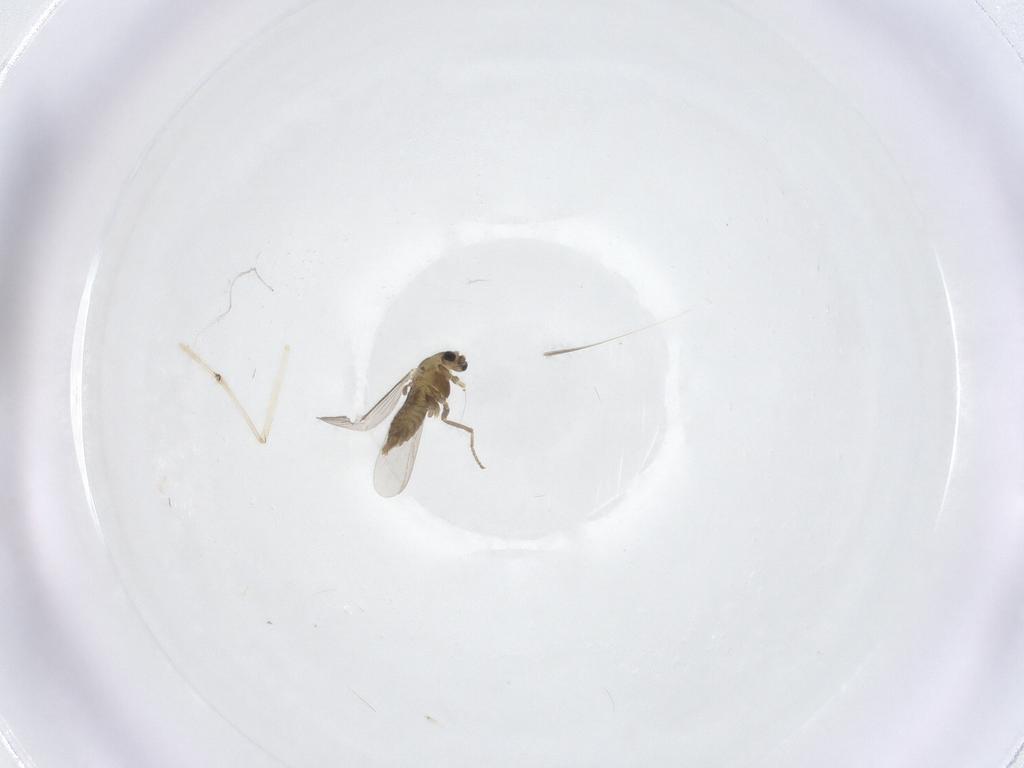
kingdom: Animalia
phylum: Arthropoda
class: Insecta
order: Diptera
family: Chironomidae
